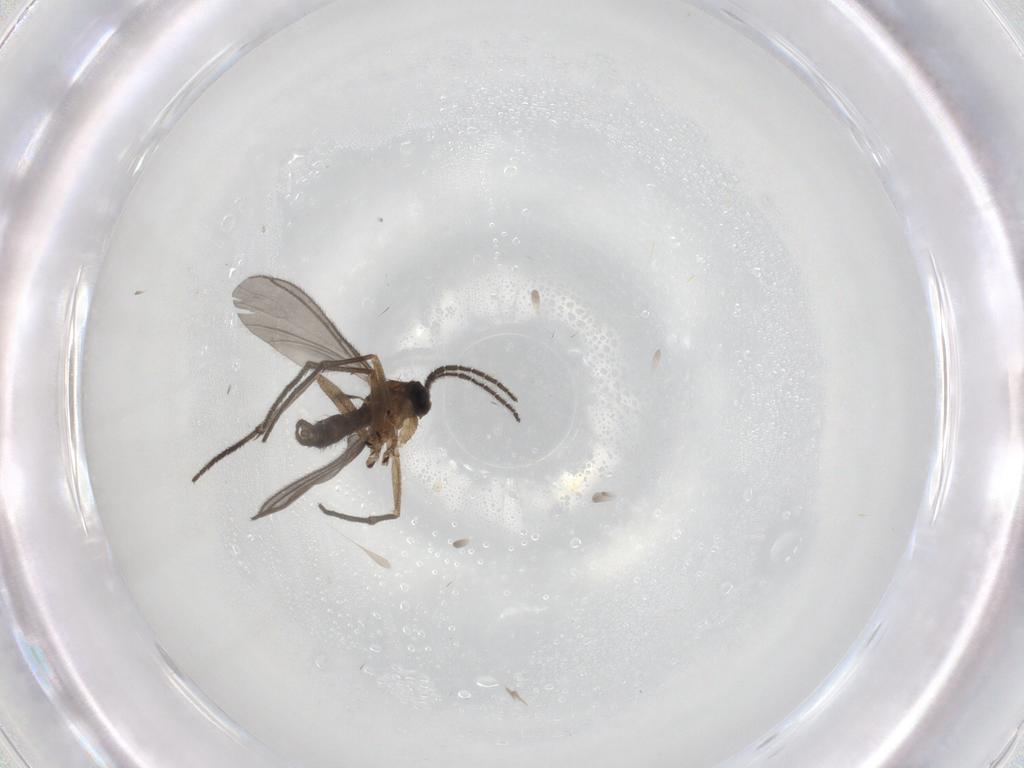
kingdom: Animalia
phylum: Arthropoda
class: Insecta
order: Diptera
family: Sciaridae
